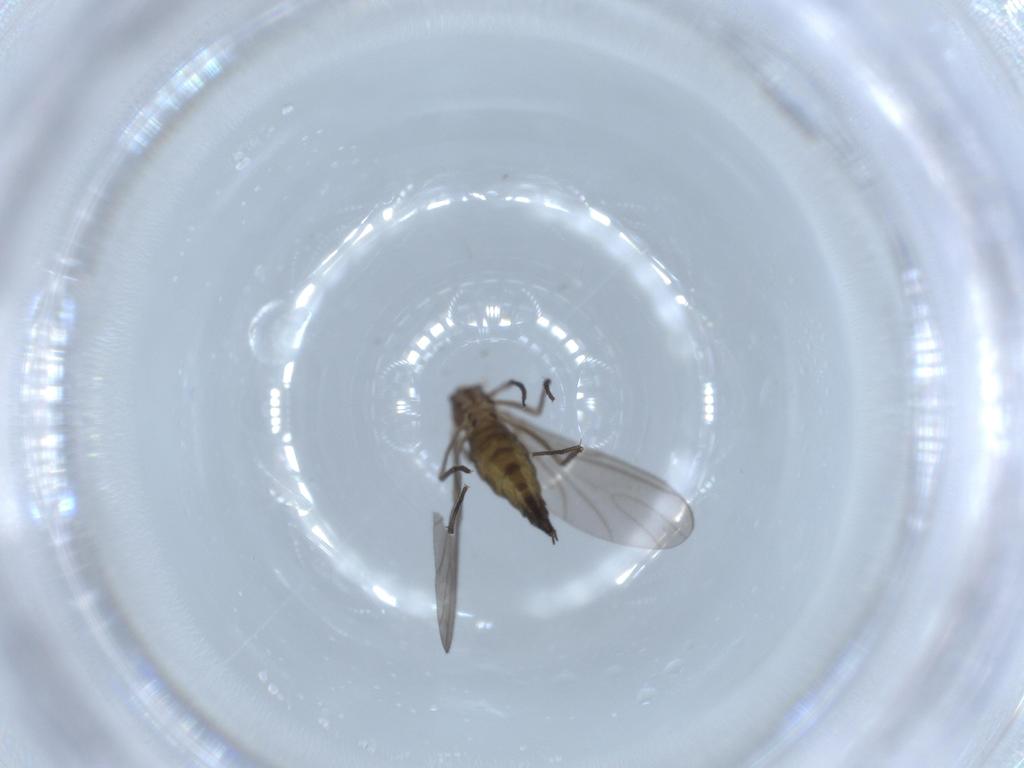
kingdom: Animalia
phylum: Arthropoda
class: Insecta
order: Diptera
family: Sciaridae
